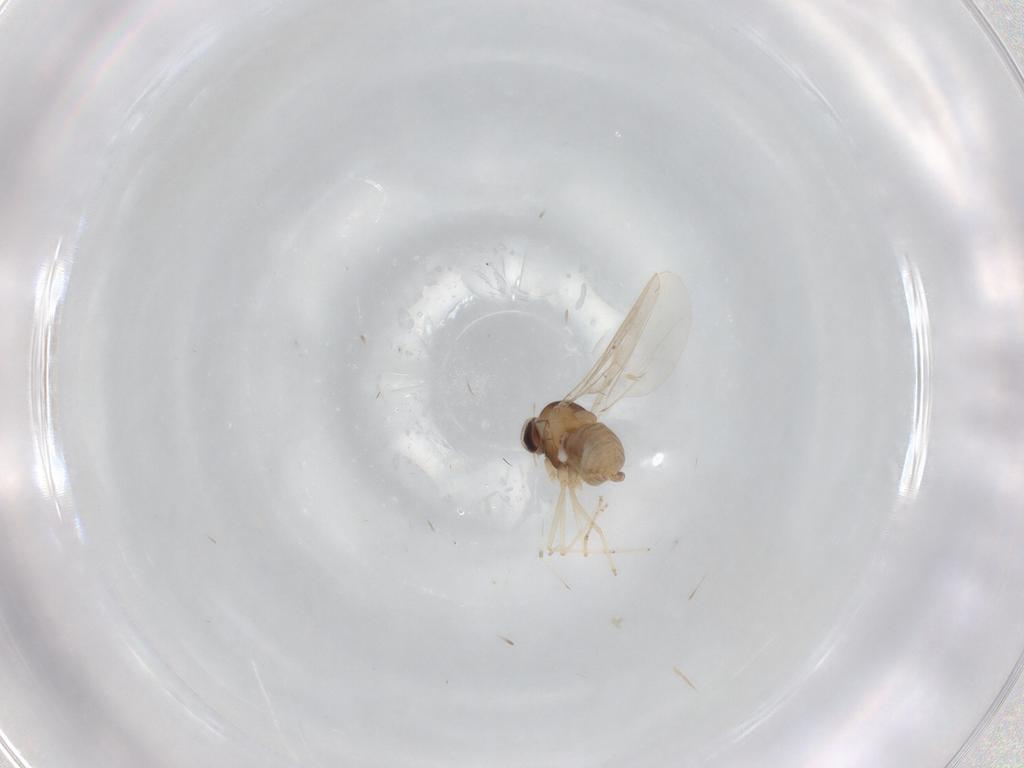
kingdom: Animalia
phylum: Arthropoda
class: Insecta
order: Diptera
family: Cecidomyiidae
